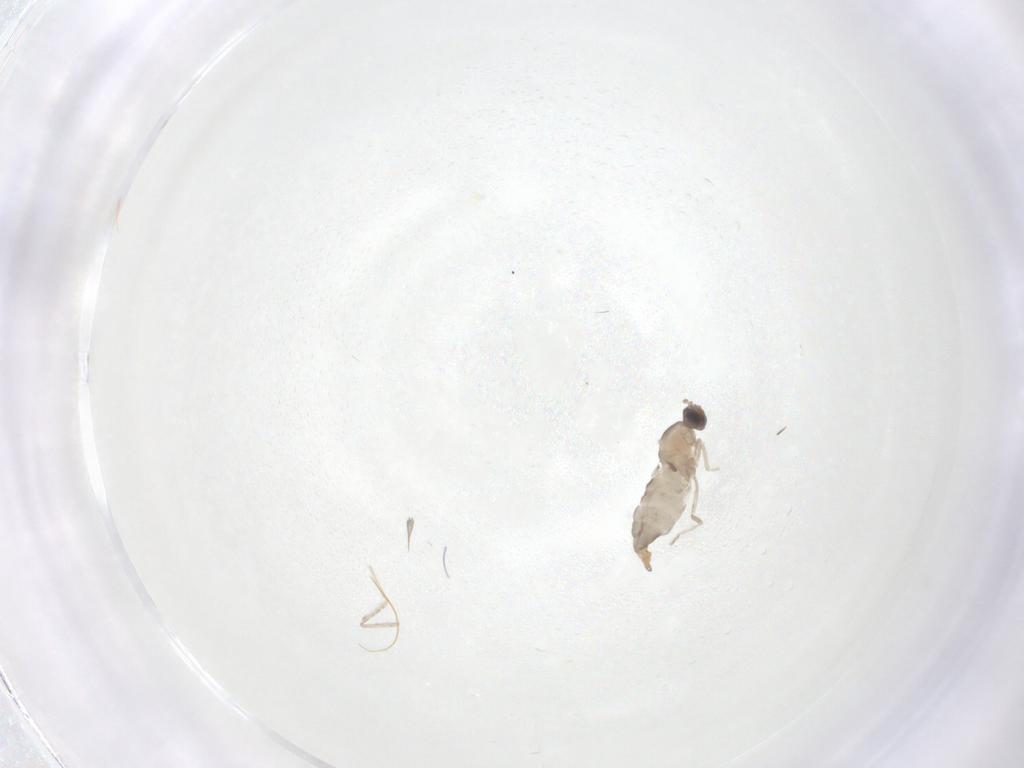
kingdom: Animalia
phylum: Arthropoda
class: Insecta
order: Diptera
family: Cecidomyiidae
